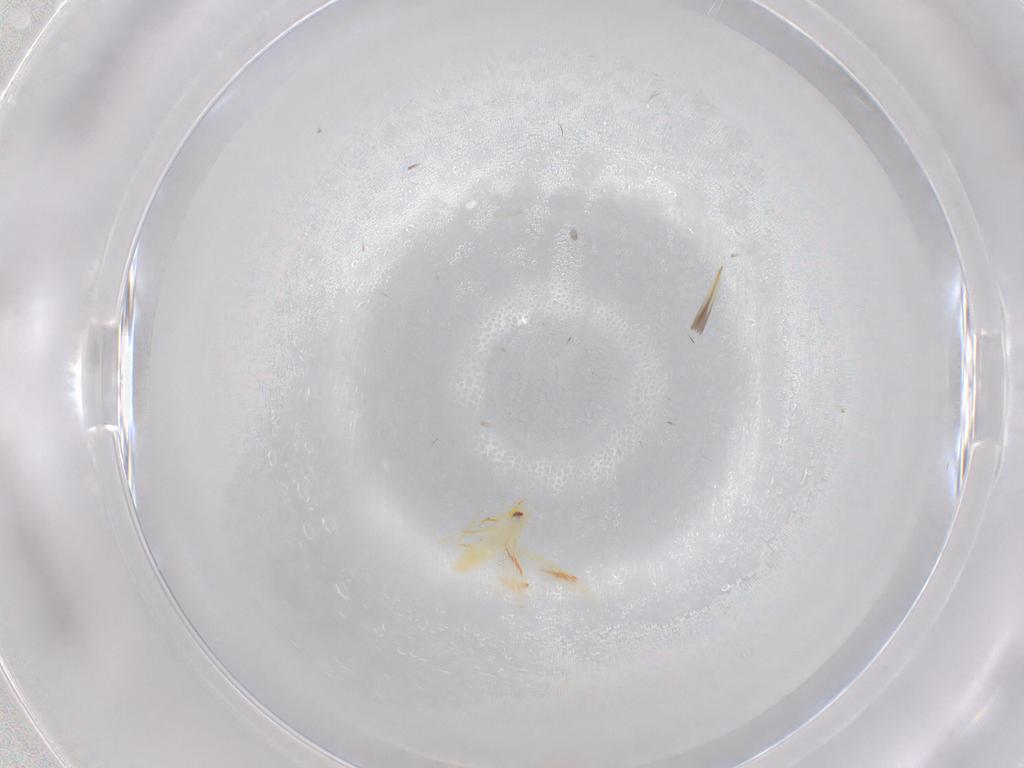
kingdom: Animalia
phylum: Arthropoda
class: Insecta
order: Hemiptera
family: Aleyrodidae
